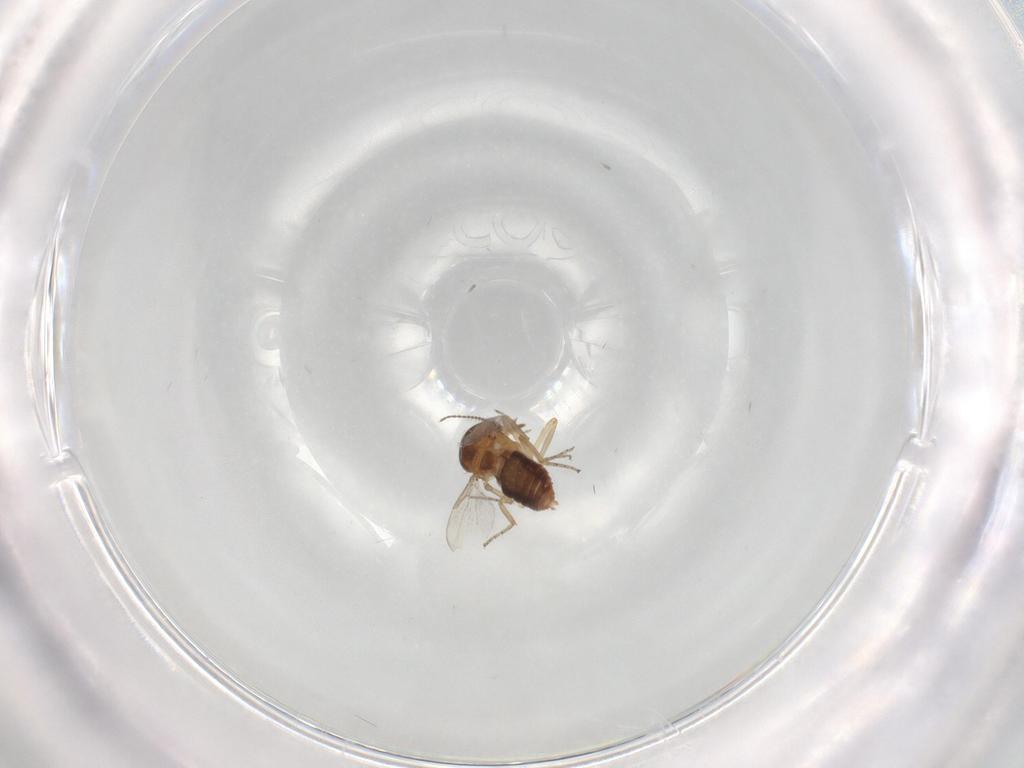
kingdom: Animalia
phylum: Arthropoda
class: Insecta
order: Diptera
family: Ceratopogonidae
